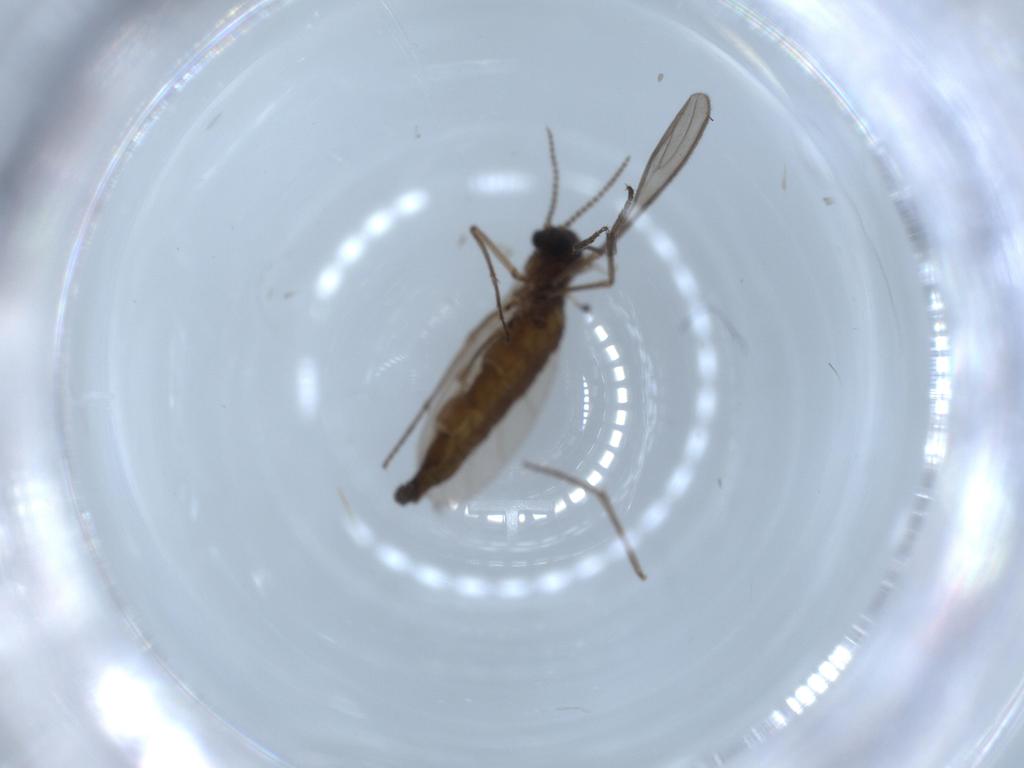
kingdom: Animalia
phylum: Arthropoda
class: Insecta
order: Diptera
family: Sciaridae
